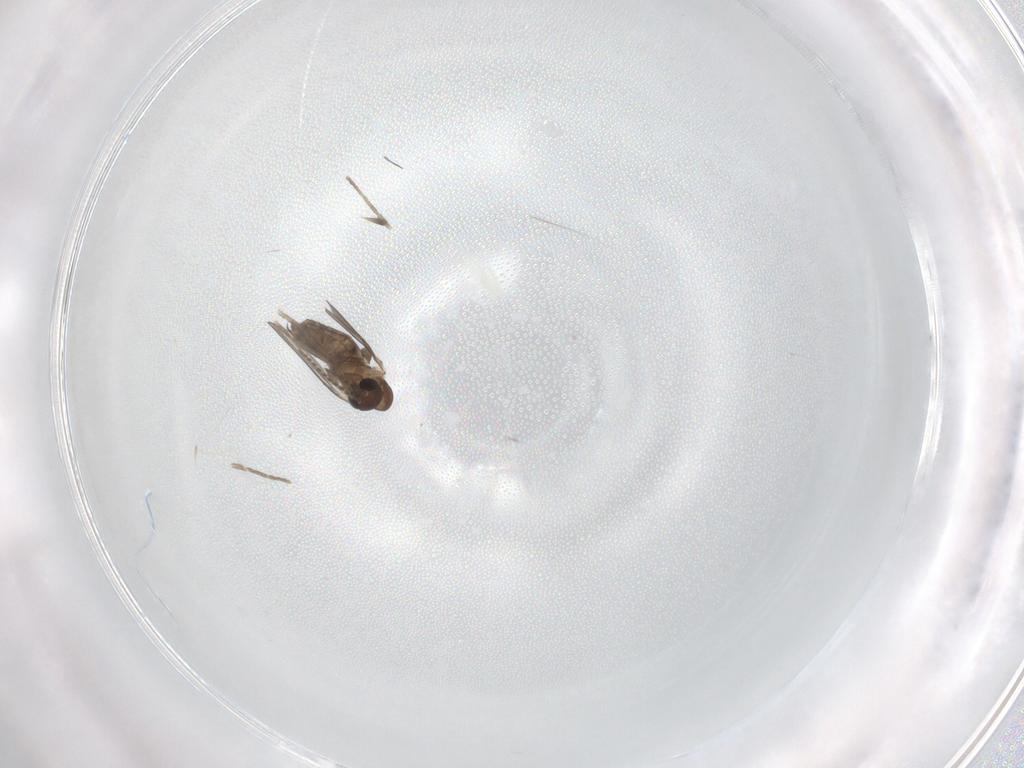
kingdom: Animalia
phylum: Arthropoda
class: Insecta
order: Diptera
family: Psychodidae
